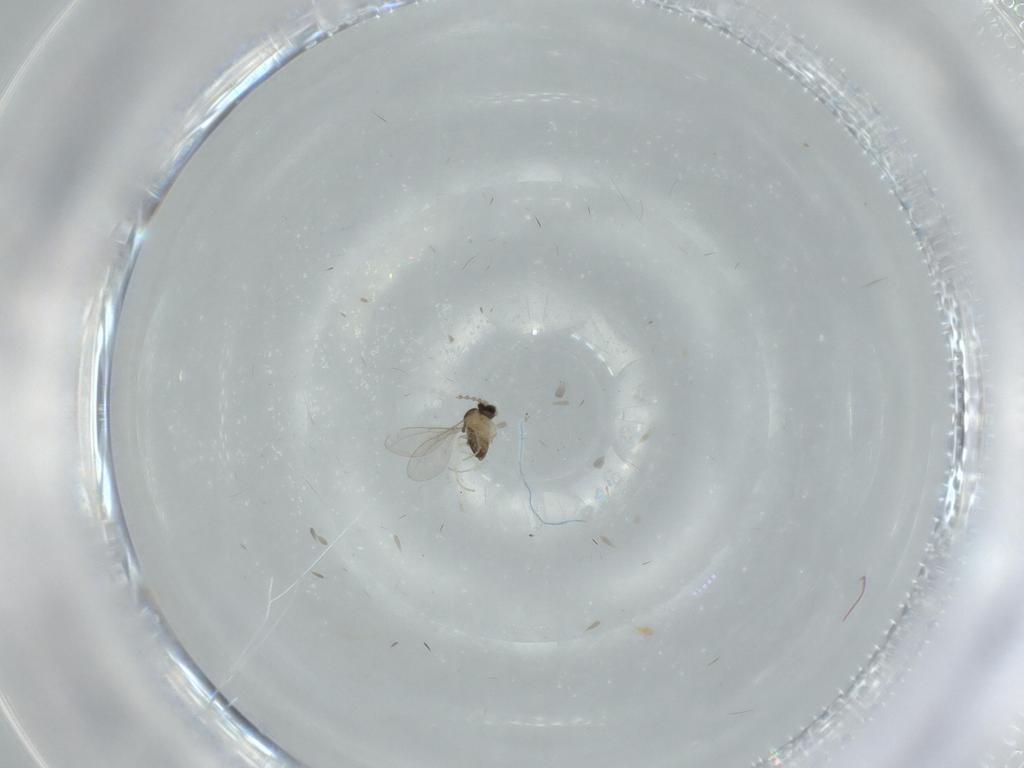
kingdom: Animalia
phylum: Arthropoda
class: Insecta
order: Diptera
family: Cecidomyiidae
